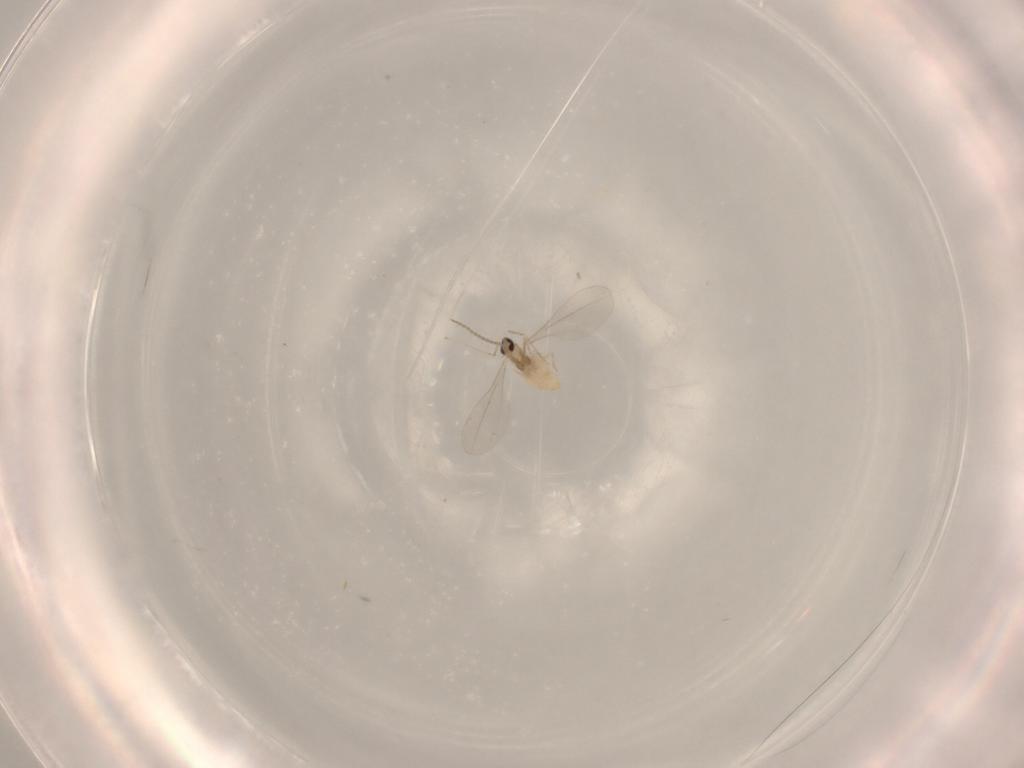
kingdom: Animalia
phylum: Arthropoda
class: Insecta
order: Diptera
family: Cecidomyiidae
